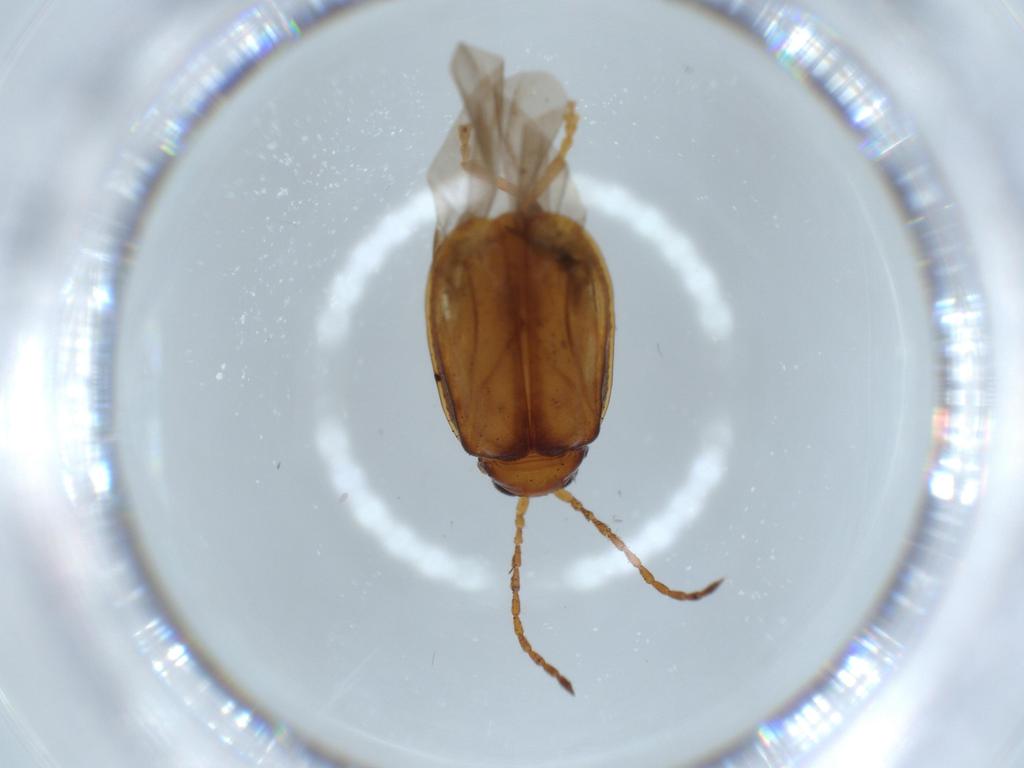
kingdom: Animalia
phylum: Arthropoda
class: Insecta
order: Coleoptera
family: Chrysomelidae
